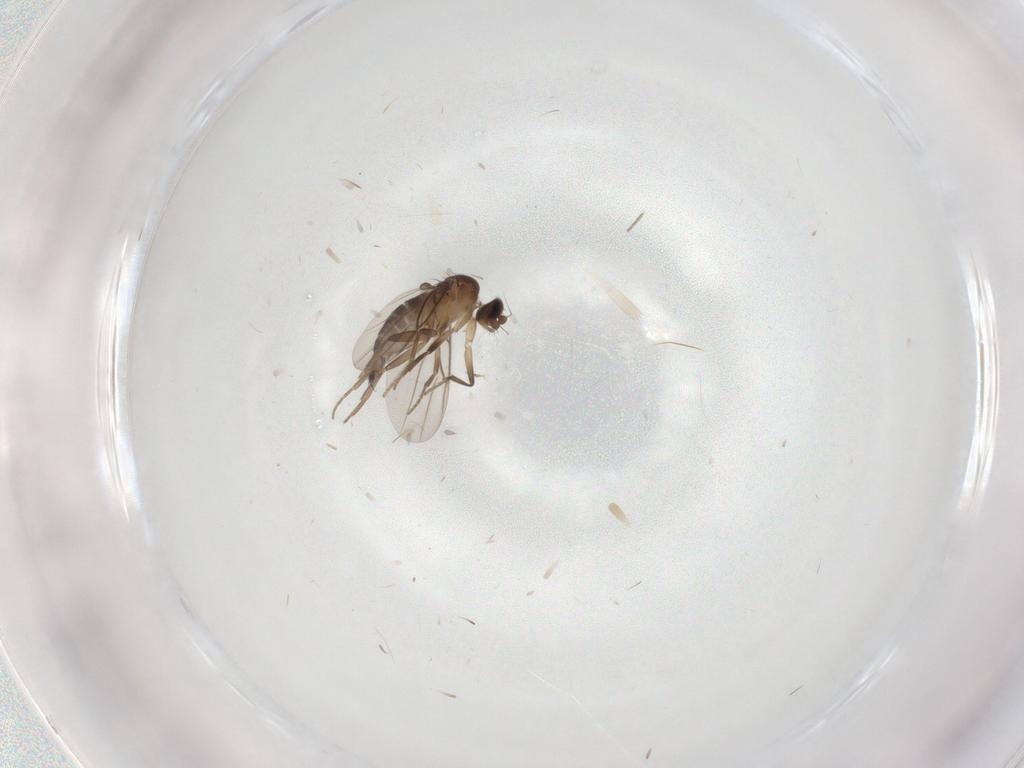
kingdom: Animalia
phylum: Arthropoda
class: Insecta
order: Diptera
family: Phoridae
